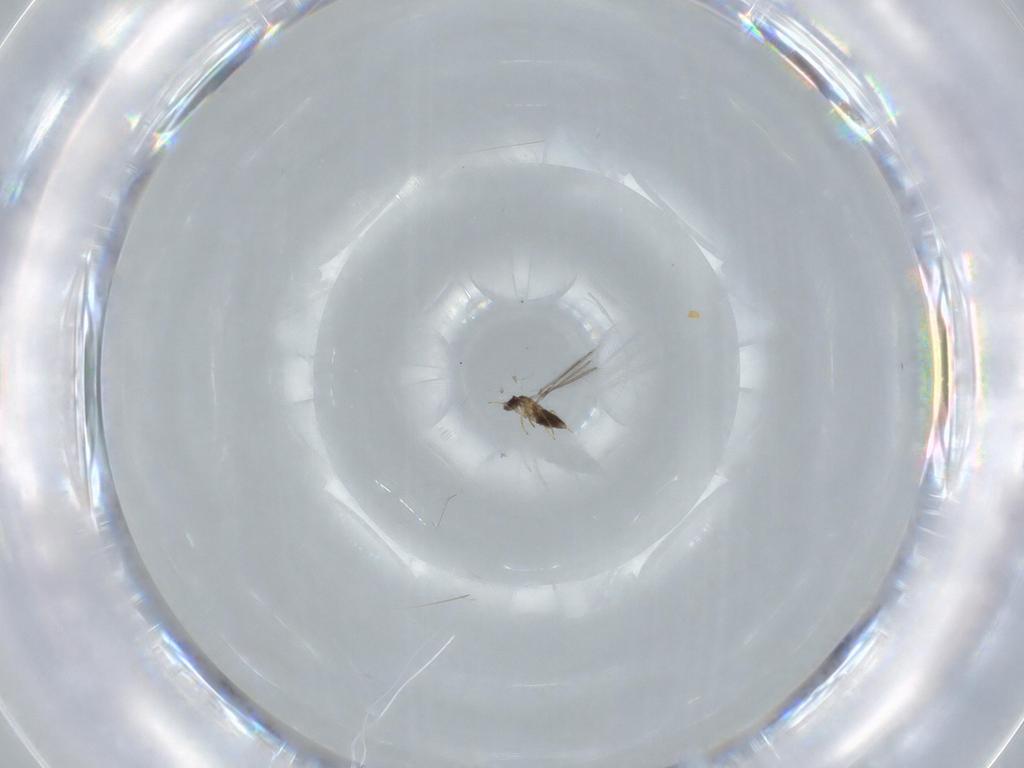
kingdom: Animalia
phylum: Arthropoda
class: Insecta
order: Hymenoptera
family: Mymaridae
